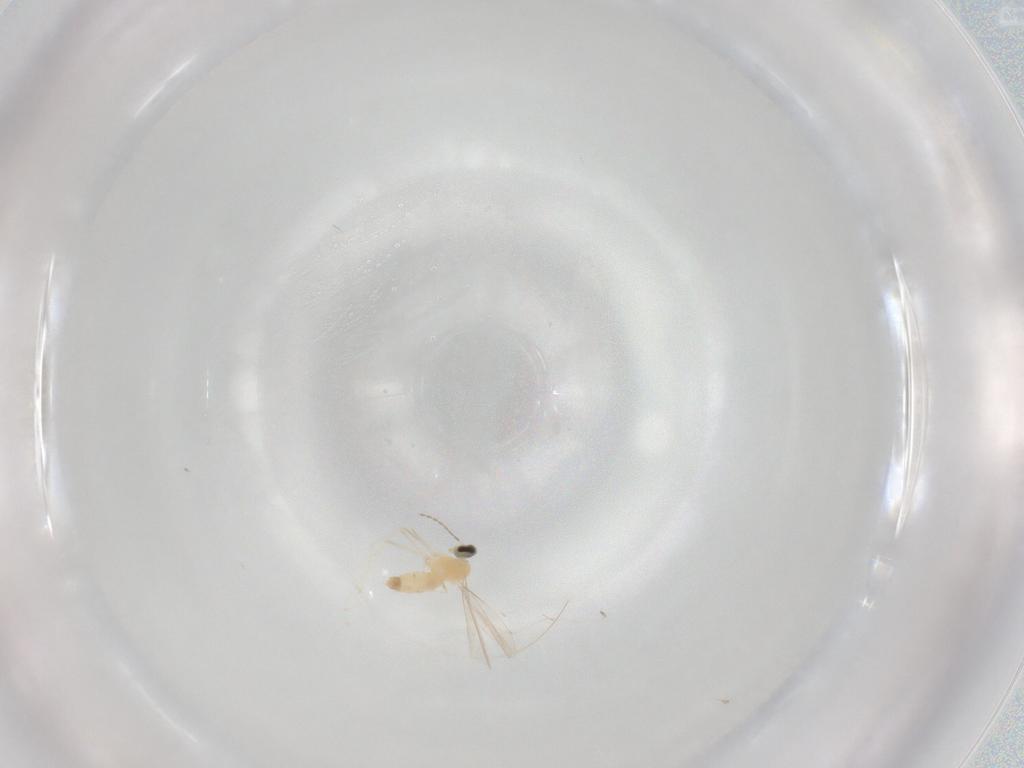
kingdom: Animalia
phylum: Arthropoda
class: Insecta
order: Diptera
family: Cecidomyiidae
